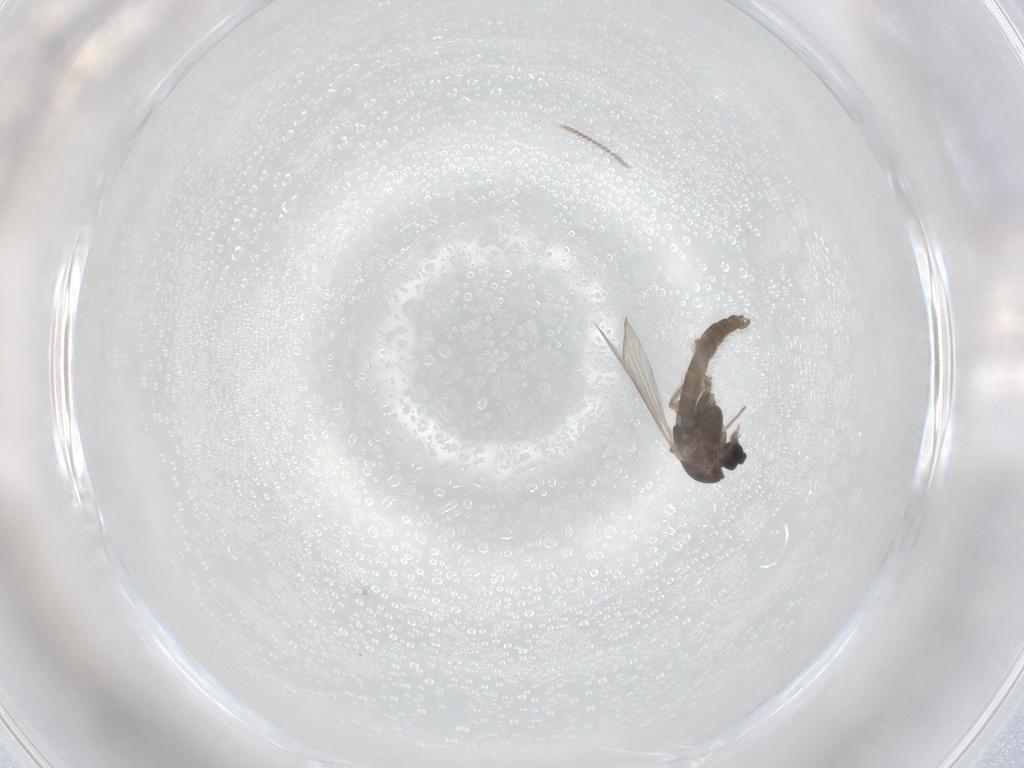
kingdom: Animalia
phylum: Arthropoda
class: Insecta
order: Diptera
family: Chironomidae
